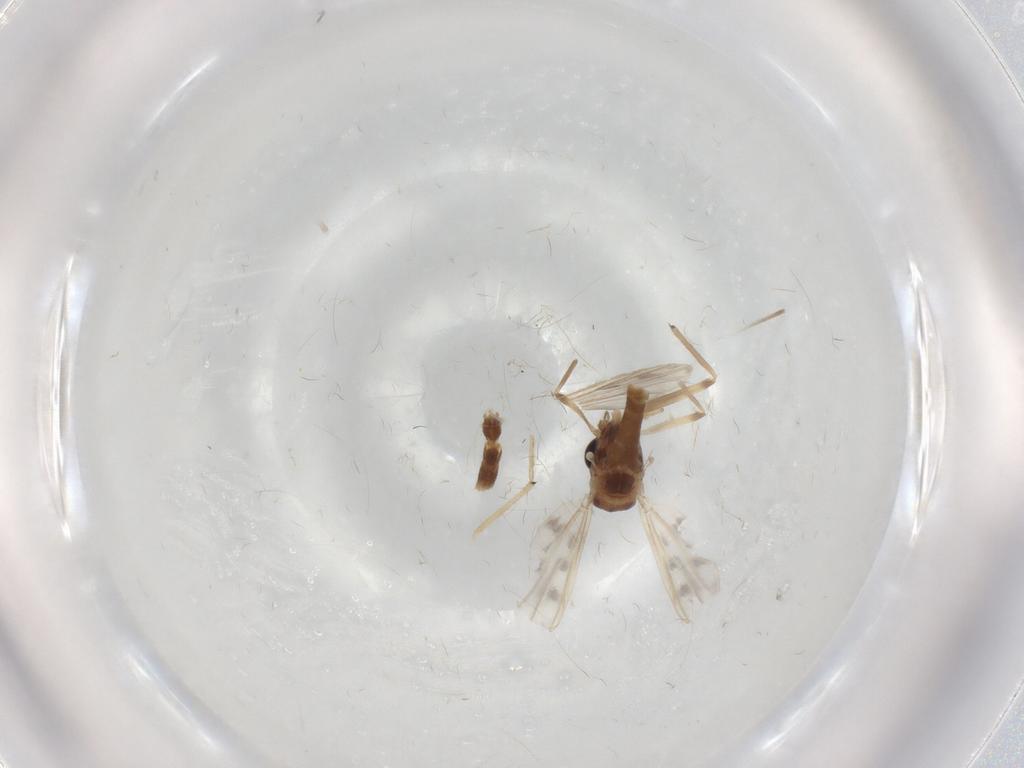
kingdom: Animalia
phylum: Arthropoda
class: Insecta
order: Diptera
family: Chironomidae
